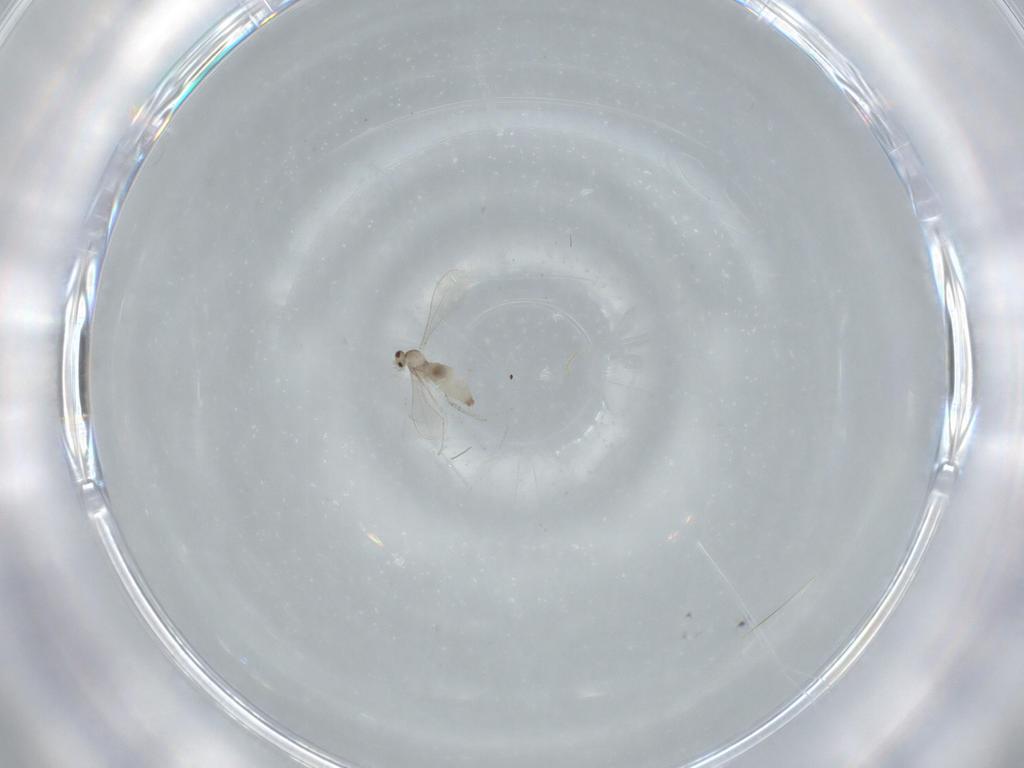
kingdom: Animalia
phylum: Arthropoda
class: Insecta
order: Diptera
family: Cecidomyiidae
